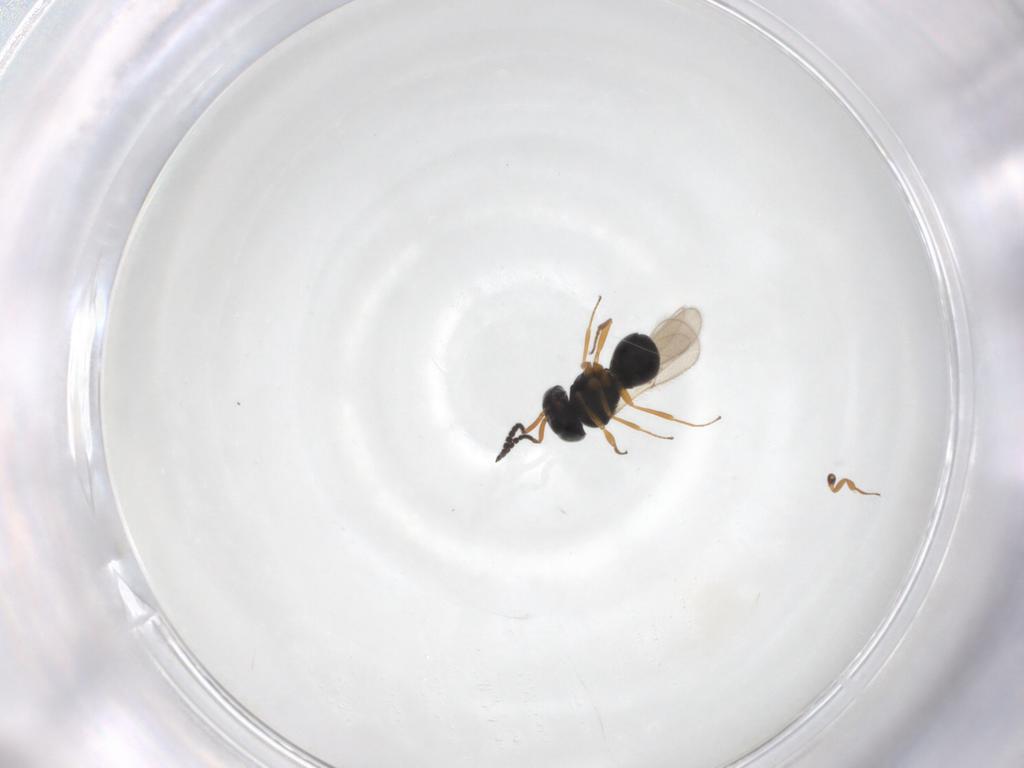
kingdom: Animalia
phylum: Arthropoda
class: Insecta
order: Hymenoptera
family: Scelionidae
